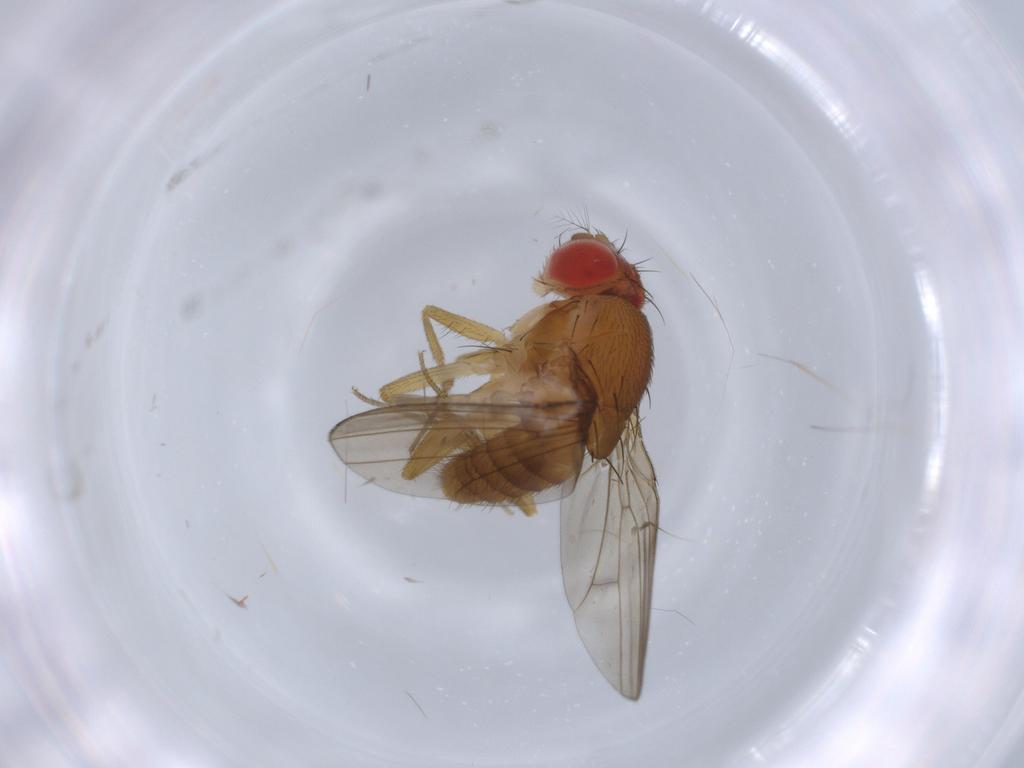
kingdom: Animalia
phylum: Arthropoda
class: Insecta
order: Diptera
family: Drosophilidae
